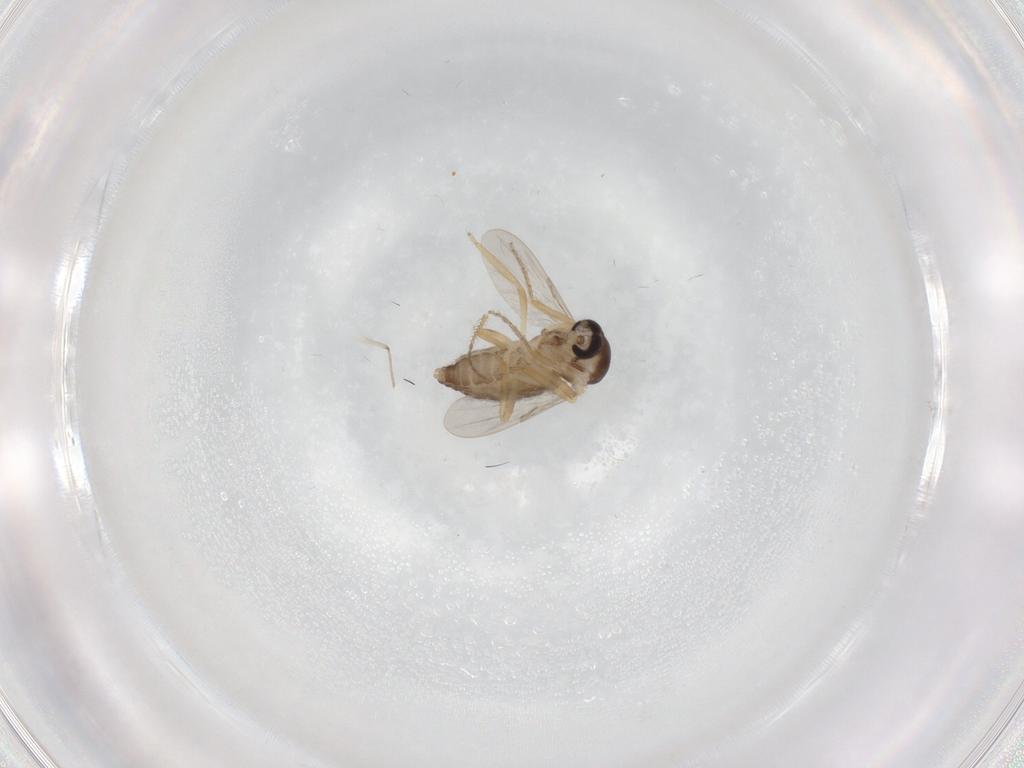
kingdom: Animalia
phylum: Arthropoda
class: Insecta
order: Diptera
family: Ceratopogonidae
